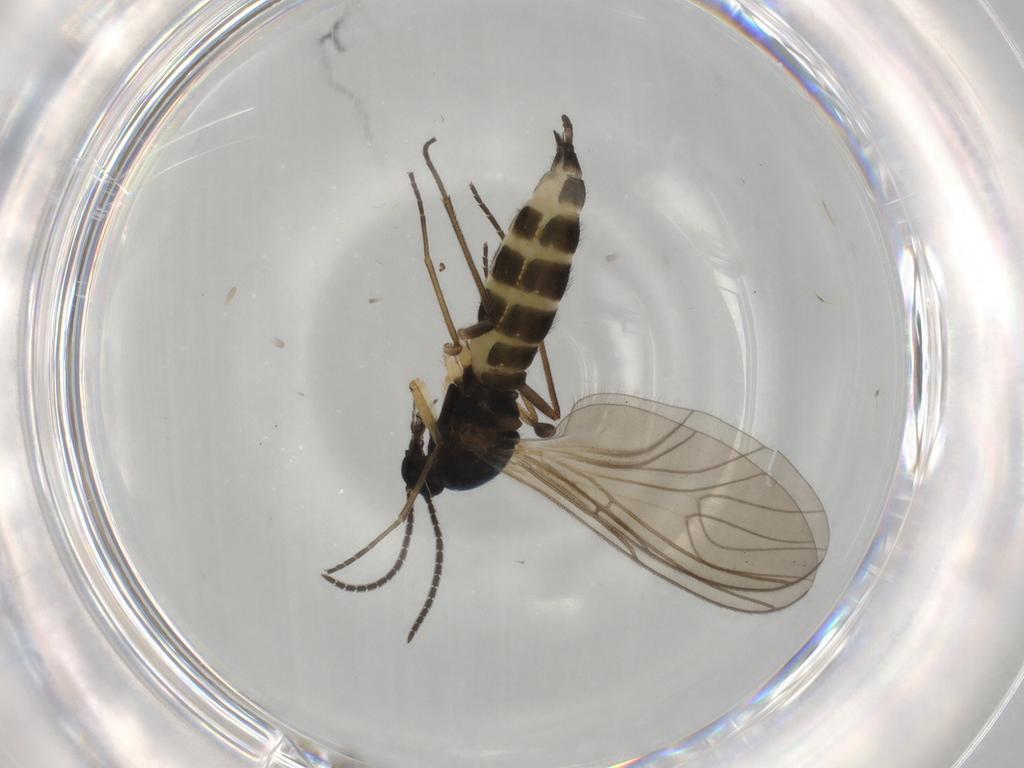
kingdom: Animalia
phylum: Arthropoda
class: Insecta
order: Diptera
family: Sciaridae
